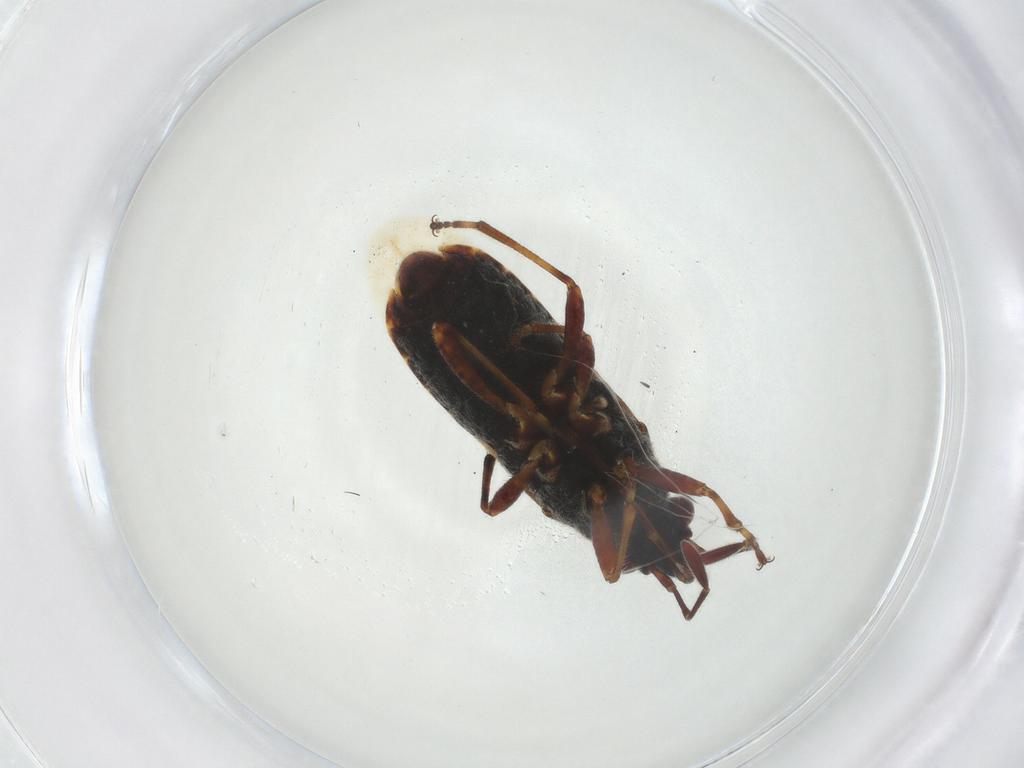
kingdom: Animalia
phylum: Arthropoda
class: Insecta
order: Hemiptera
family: Lygaeidae
